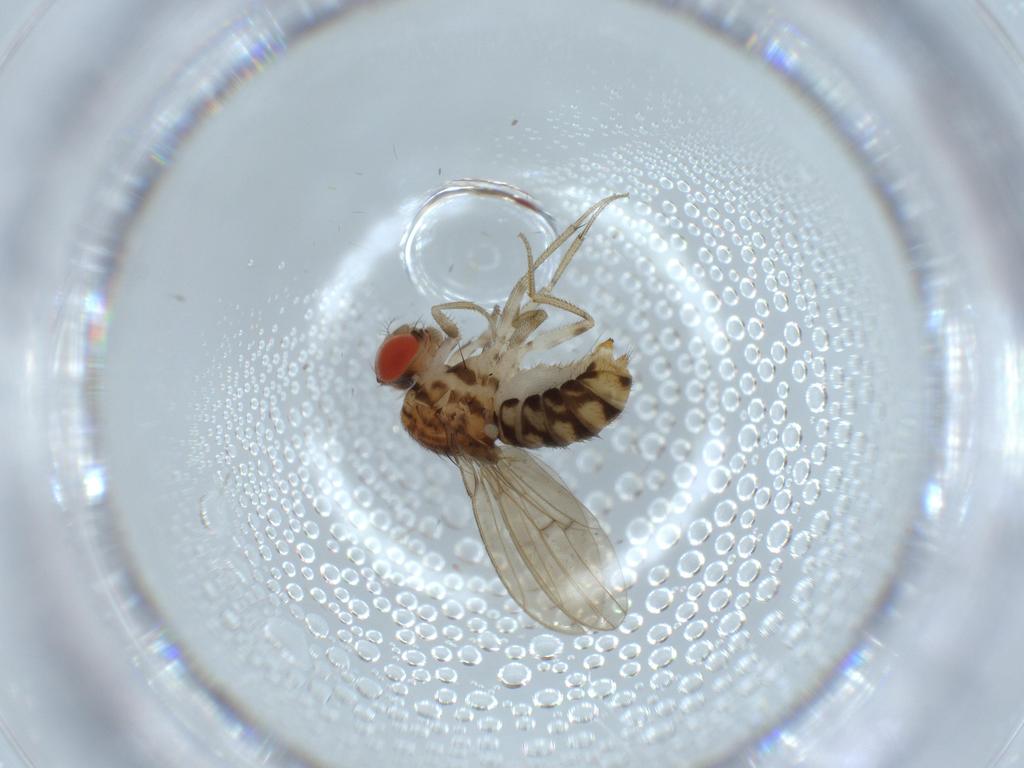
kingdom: Animalia
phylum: Arthropoda
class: Insecta
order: Diptera
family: Drosophilidae
